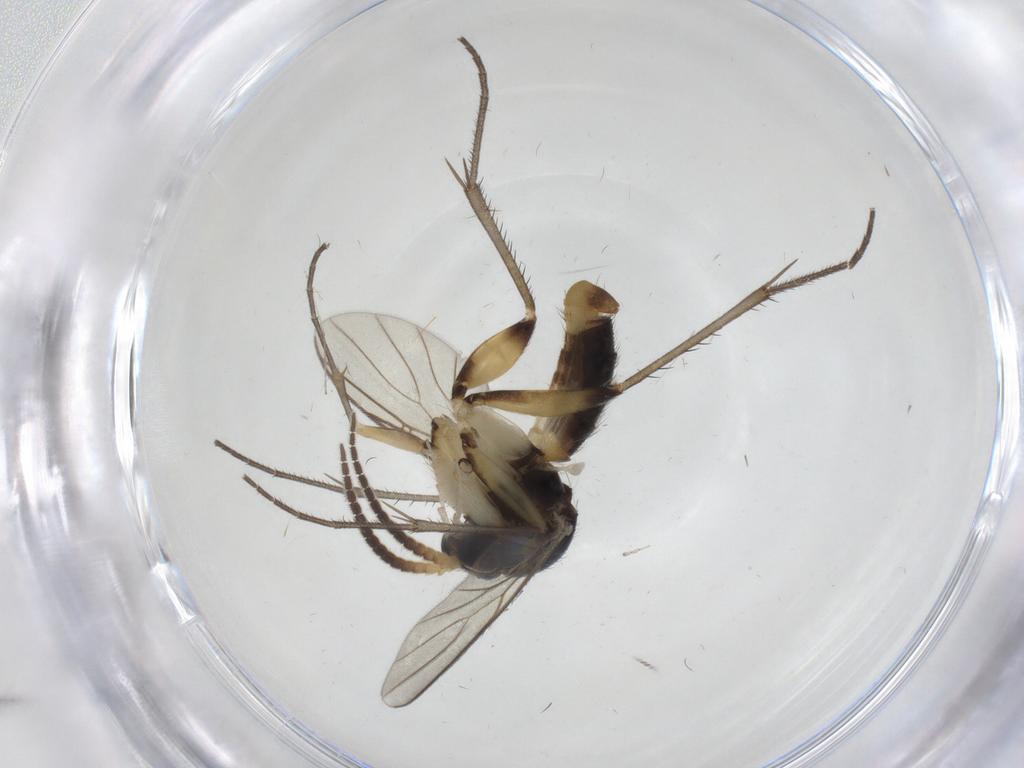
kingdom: Animalia
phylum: Arthropoda
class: Insecta
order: Diptera
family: Mycetophilidae
